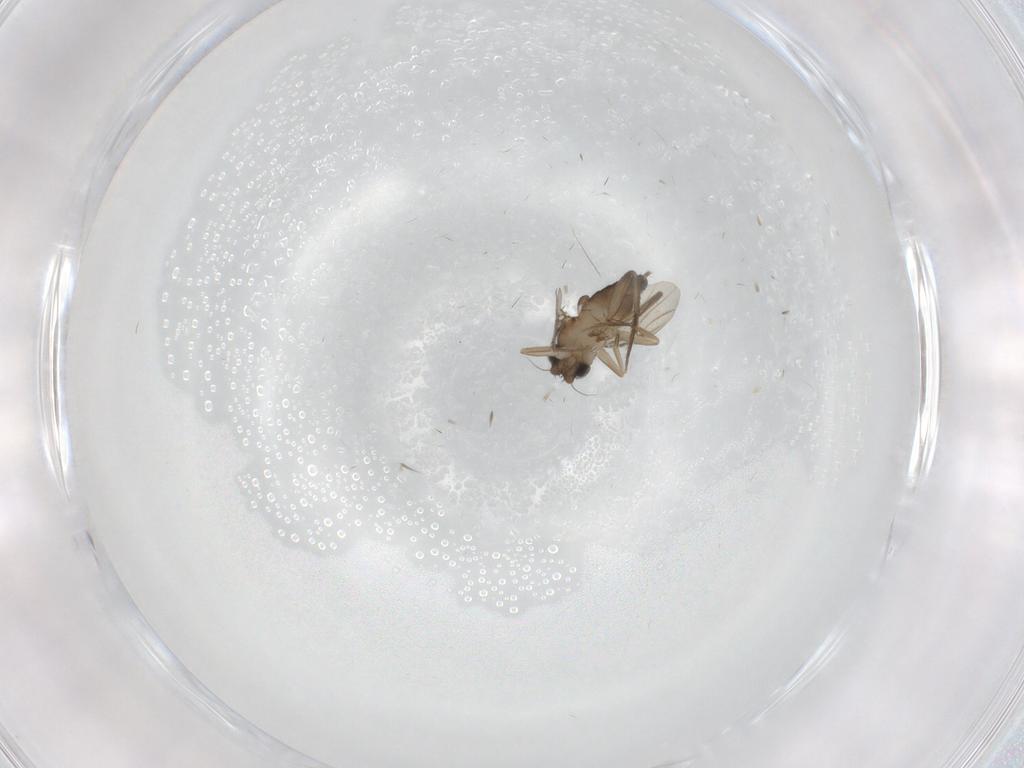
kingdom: Animalia
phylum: Arthropoda
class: Insecta
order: Diptera
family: Phoridae
